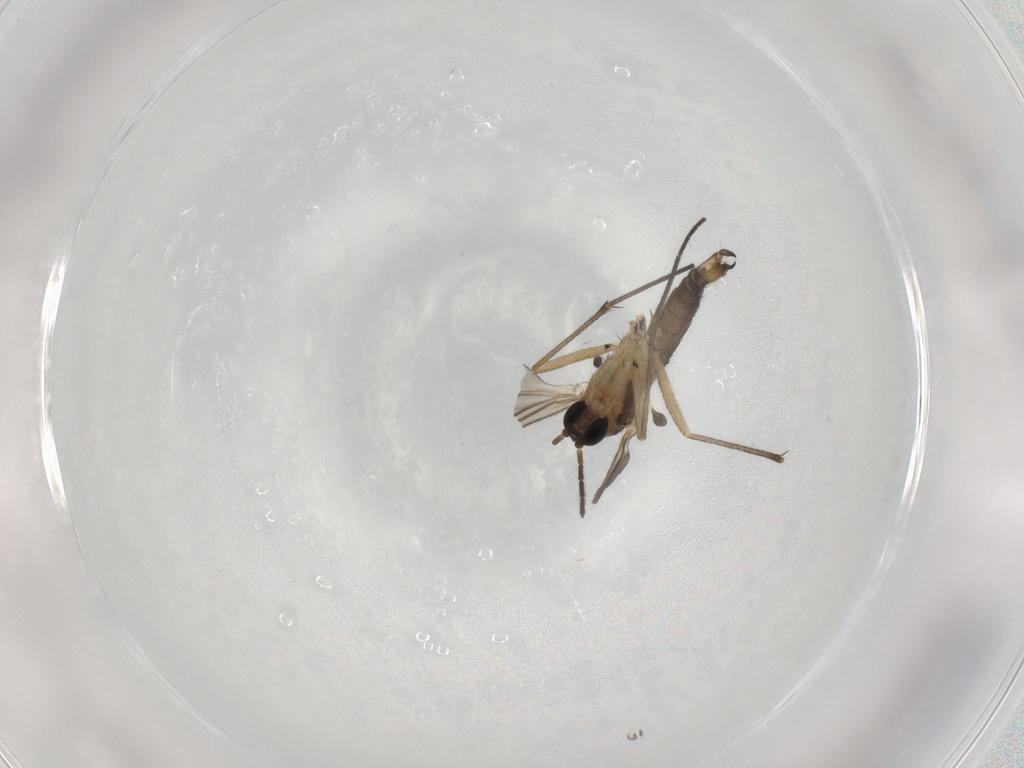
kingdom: Animalia
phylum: Arthropoda
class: Insecta
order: Diptera
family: Sciaridae
